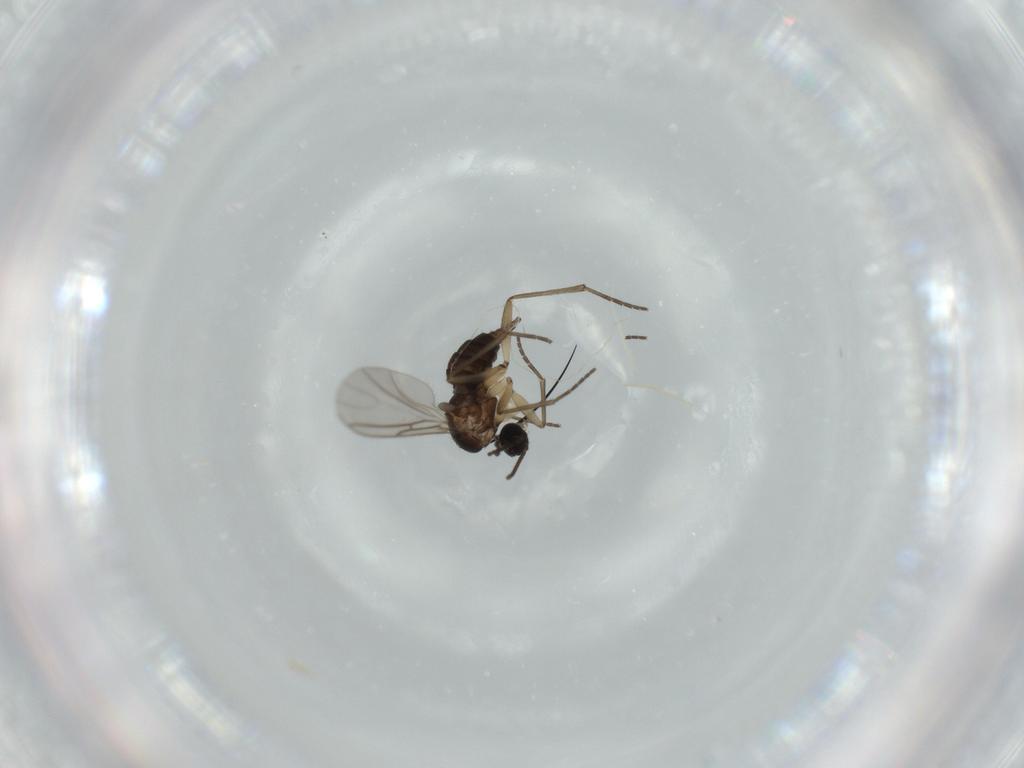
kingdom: Animalia
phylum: Arthropoda
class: Insecta
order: Diptera
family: Sciaridae
